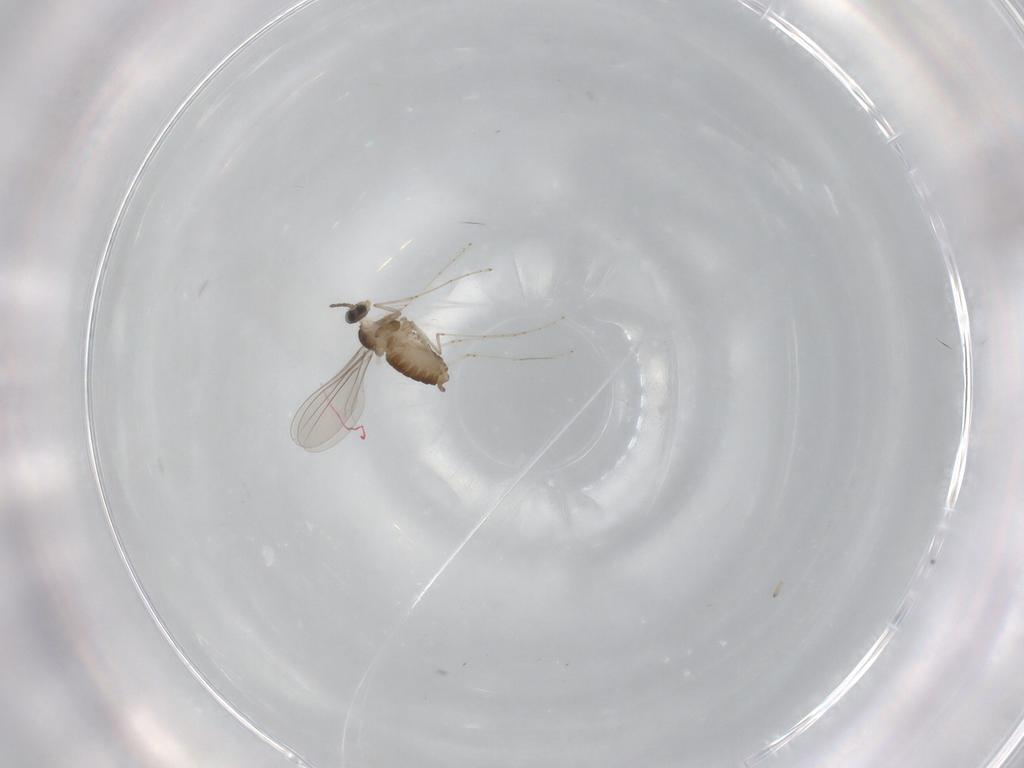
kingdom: Animalia
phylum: Arthropoda
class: Insecta
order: Diptera
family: Cecidomyiidae
